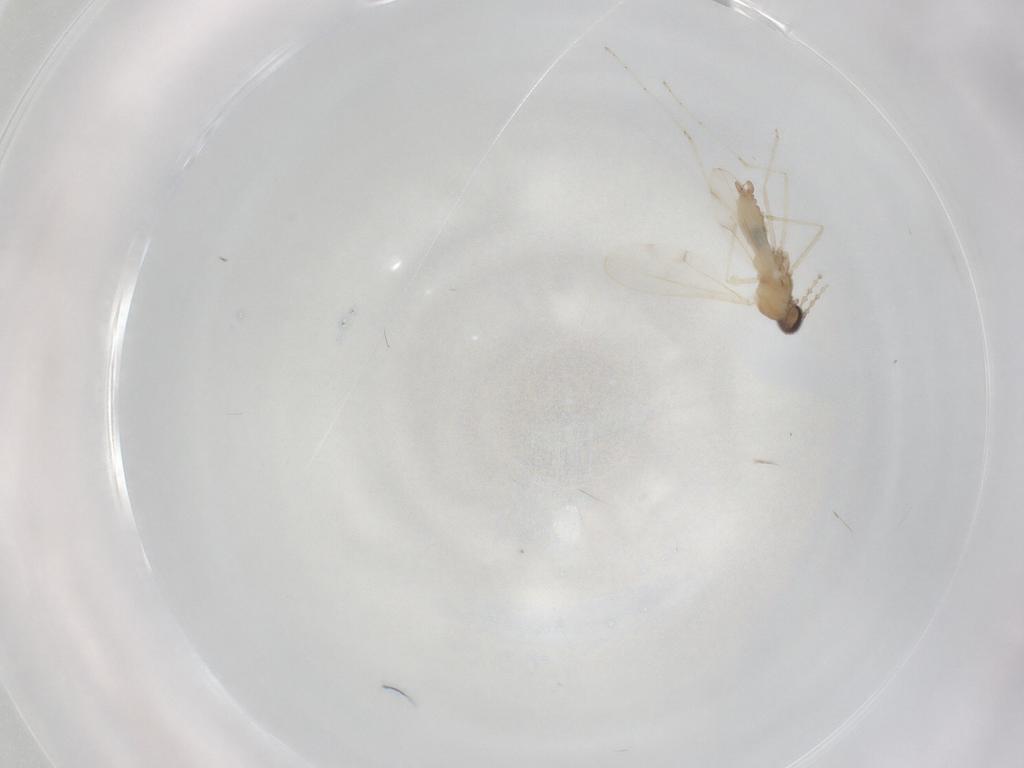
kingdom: Animalia
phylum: Arthropoda
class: Insecta
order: Diptera
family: Cecidomyiidae
